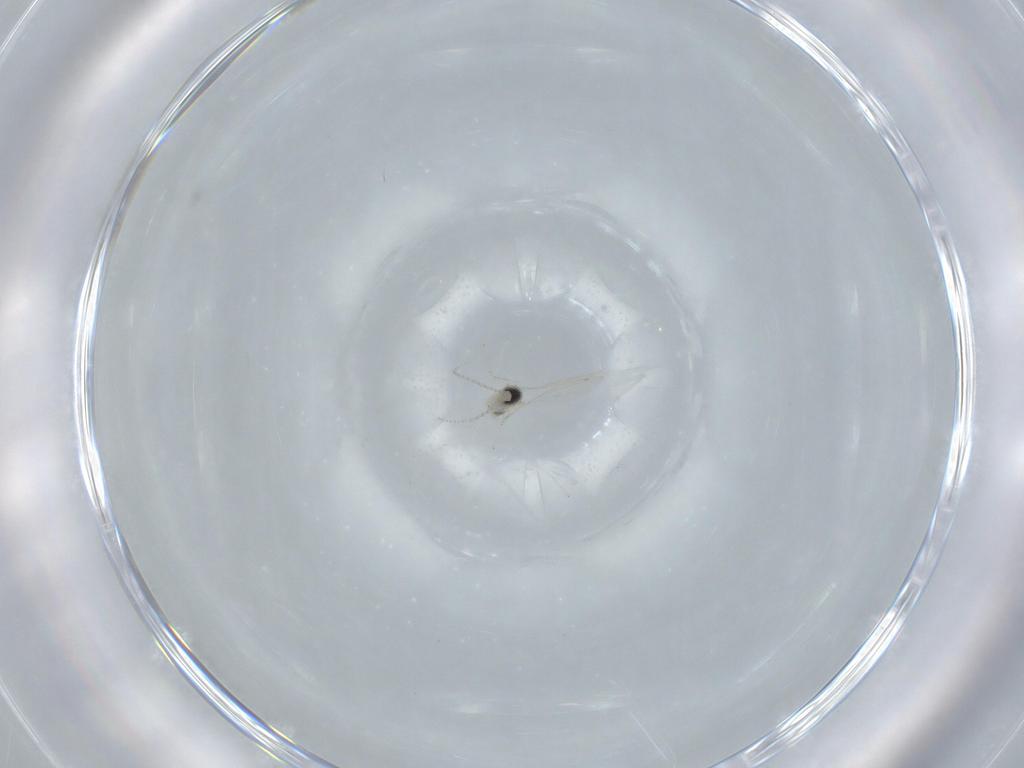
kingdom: Animalia
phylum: Arthropoda
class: Insecta
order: Diptera
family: Cecidomyiidae
